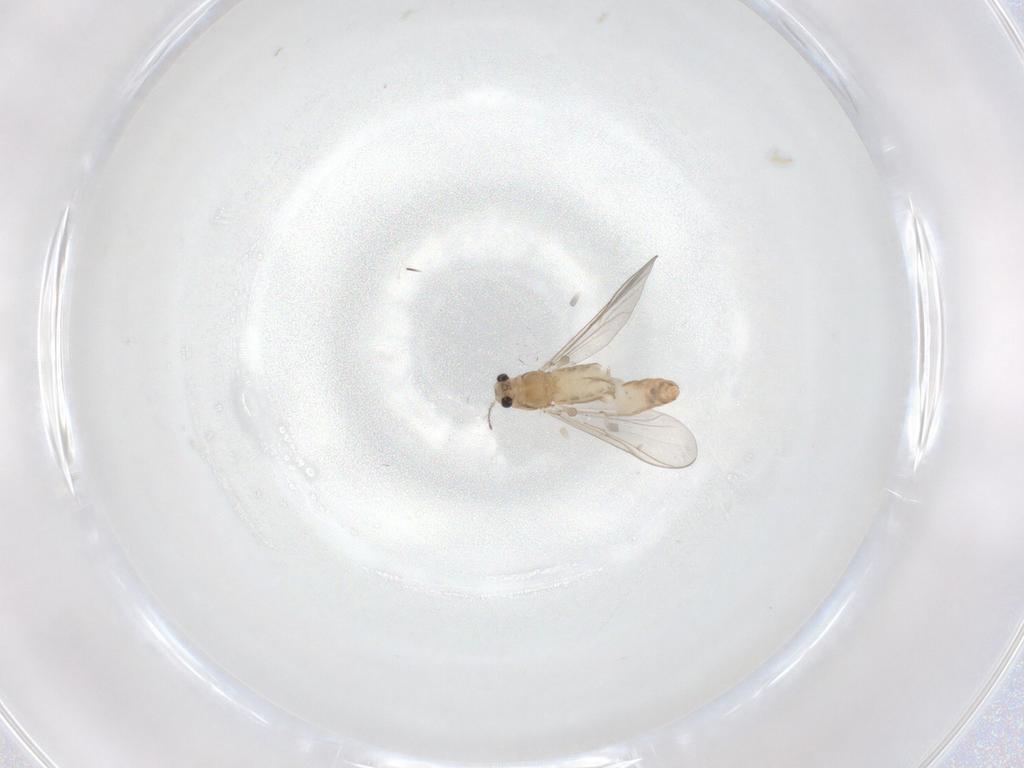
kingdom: Animalia
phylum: Arthropoda
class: Insecta
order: Diptera
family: Chironomidae
